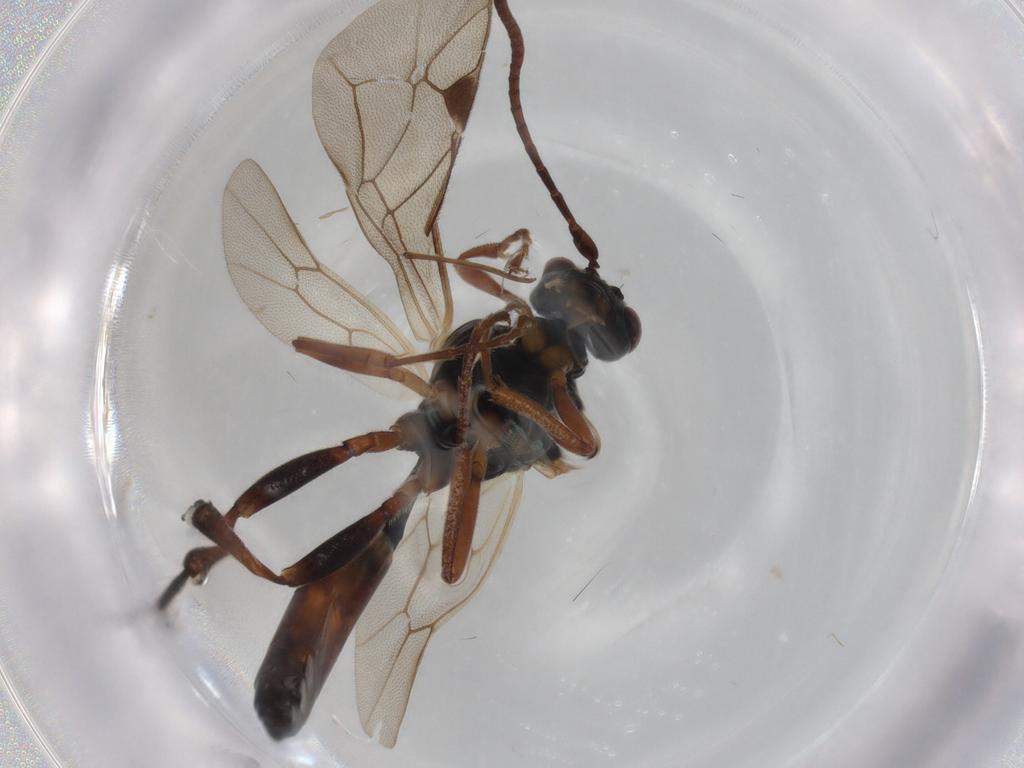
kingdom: Animalia
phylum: Arthropoda
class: Insecta
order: Hymenoptera
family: Ichneumonidae
